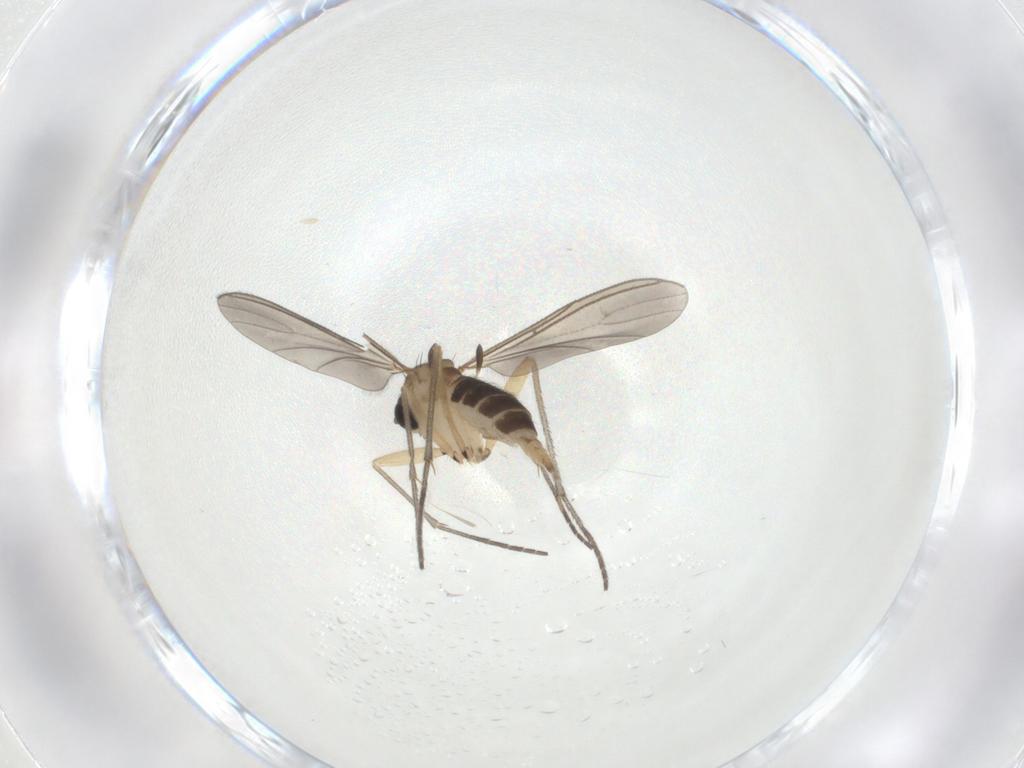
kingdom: Animalia
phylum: Arthropoda
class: Insecta
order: Diptera
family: Sciaridae
